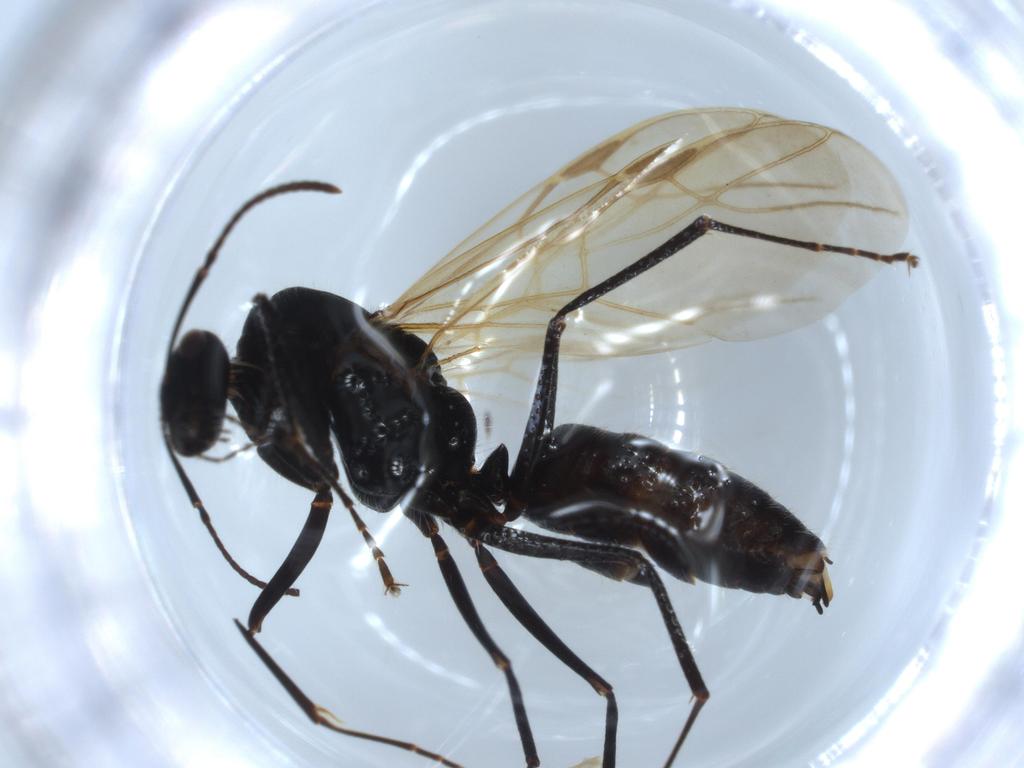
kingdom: Animalia
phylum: Arthropoda
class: Insecta
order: Hymenoptera
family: Formicidae
